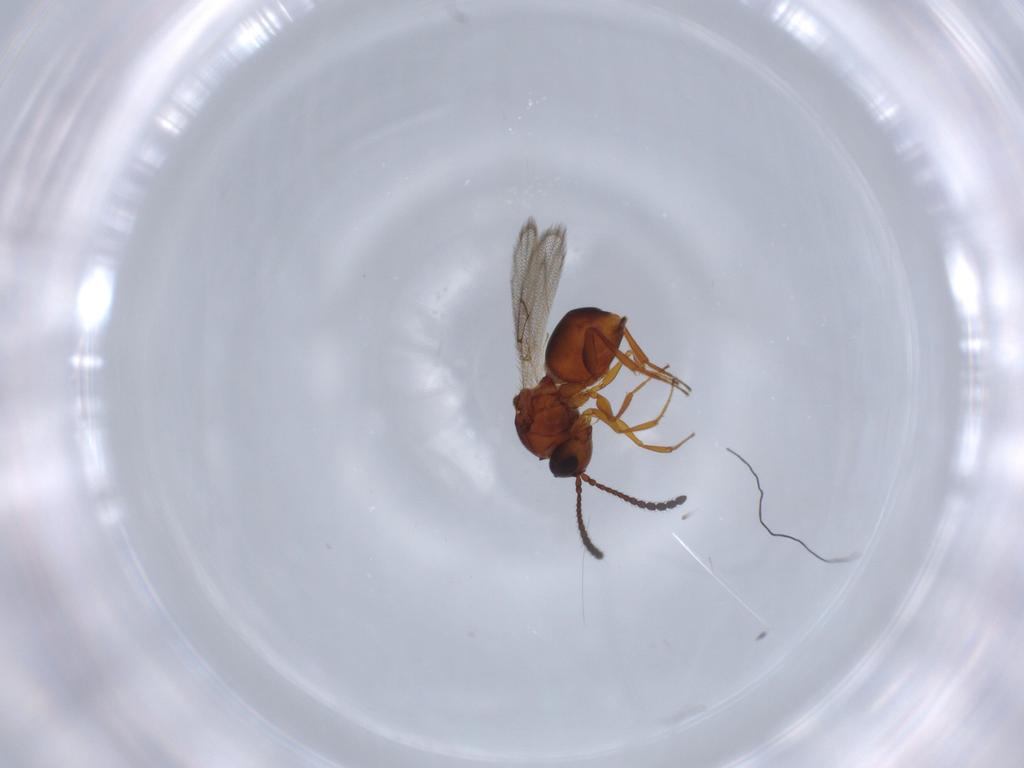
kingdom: Animalia
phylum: Arthropoda
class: Insecta
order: Hymenoptera
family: Figitidae
